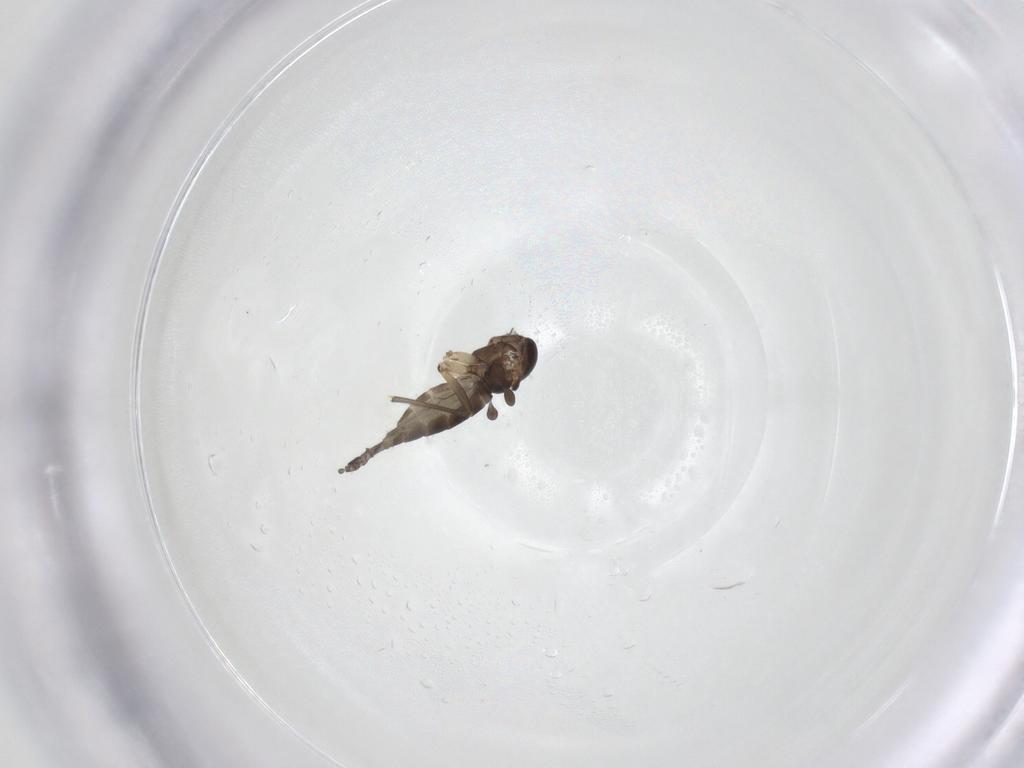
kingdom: Animalia
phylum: Arthropoda
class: Insecta
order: Diptera
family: Sciaridae
